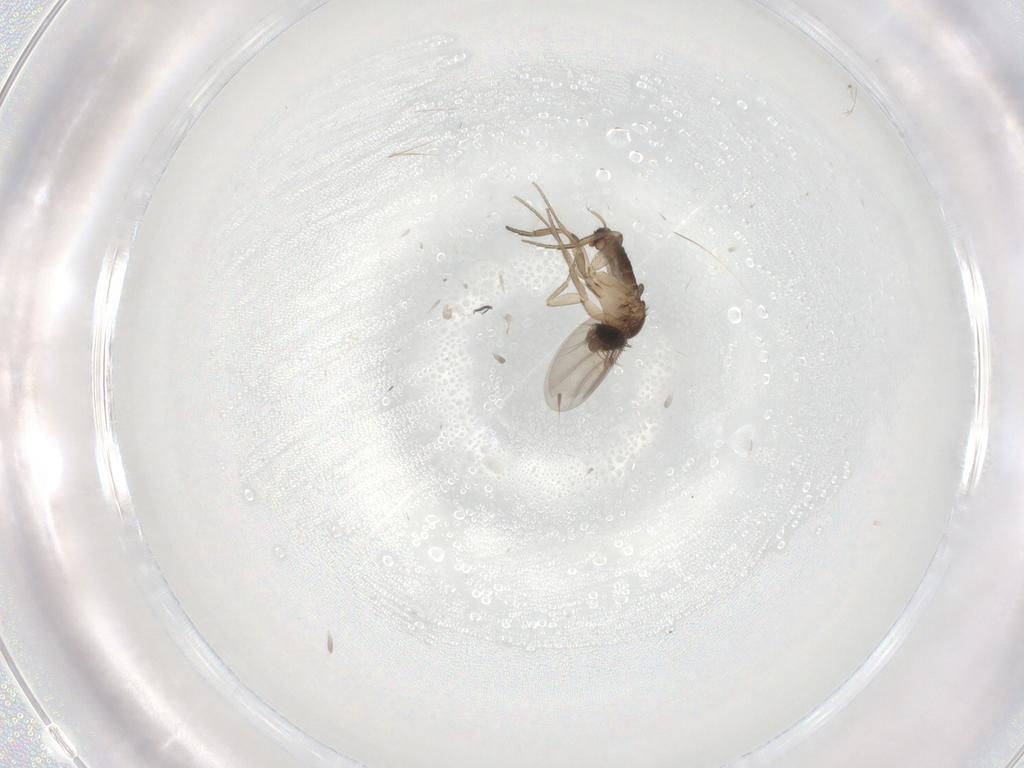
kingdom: Animalia
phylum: Arthropoda
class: Insecta
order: Diptera
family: Phoridae
